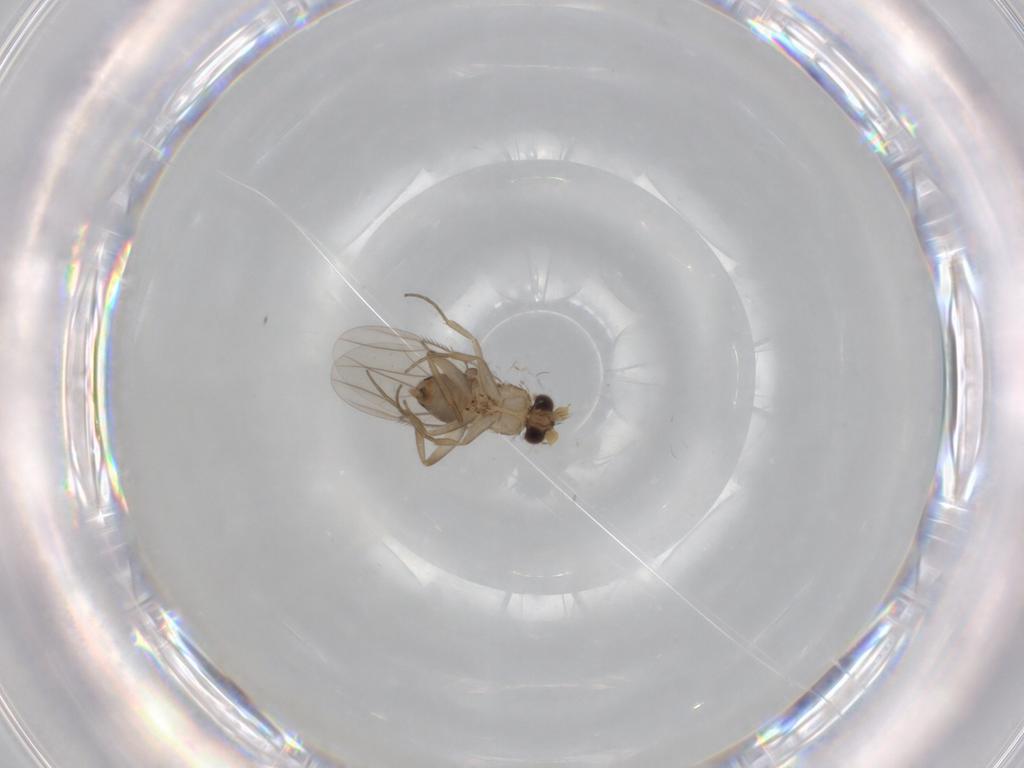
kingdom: Animalia
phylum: Arthropoda
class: Insecta
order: Diptera
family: Phoridae
